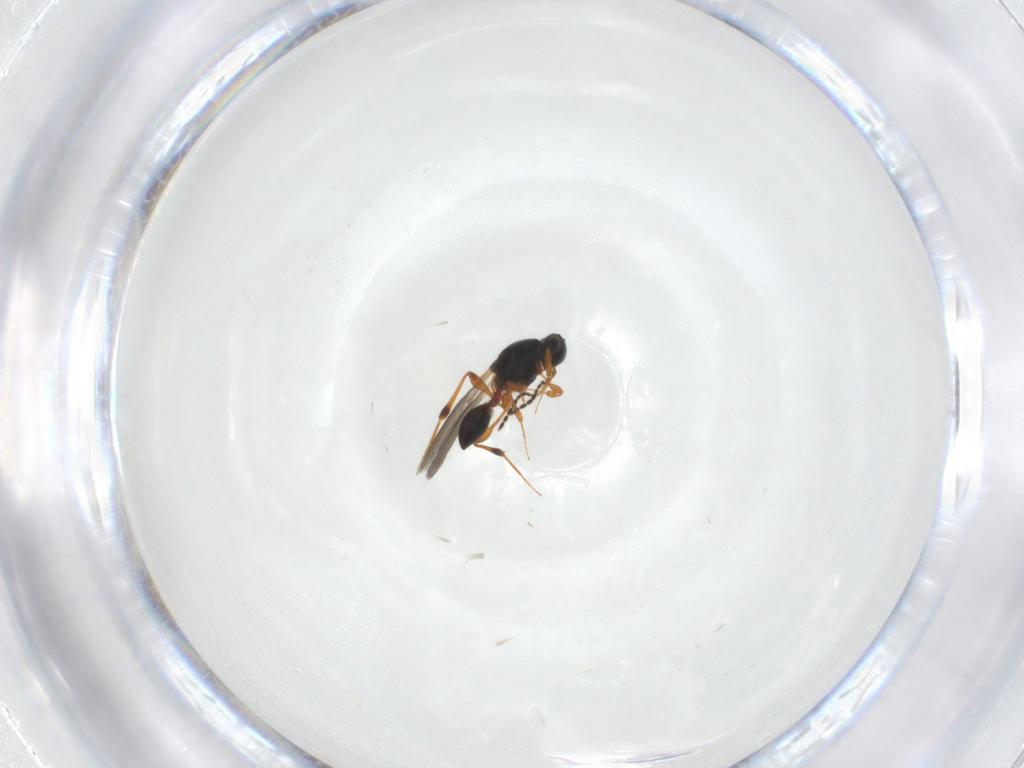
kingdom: Animalia
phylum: Arthropoda
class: Insecta
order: Hymenoptera
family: Platygastridae
